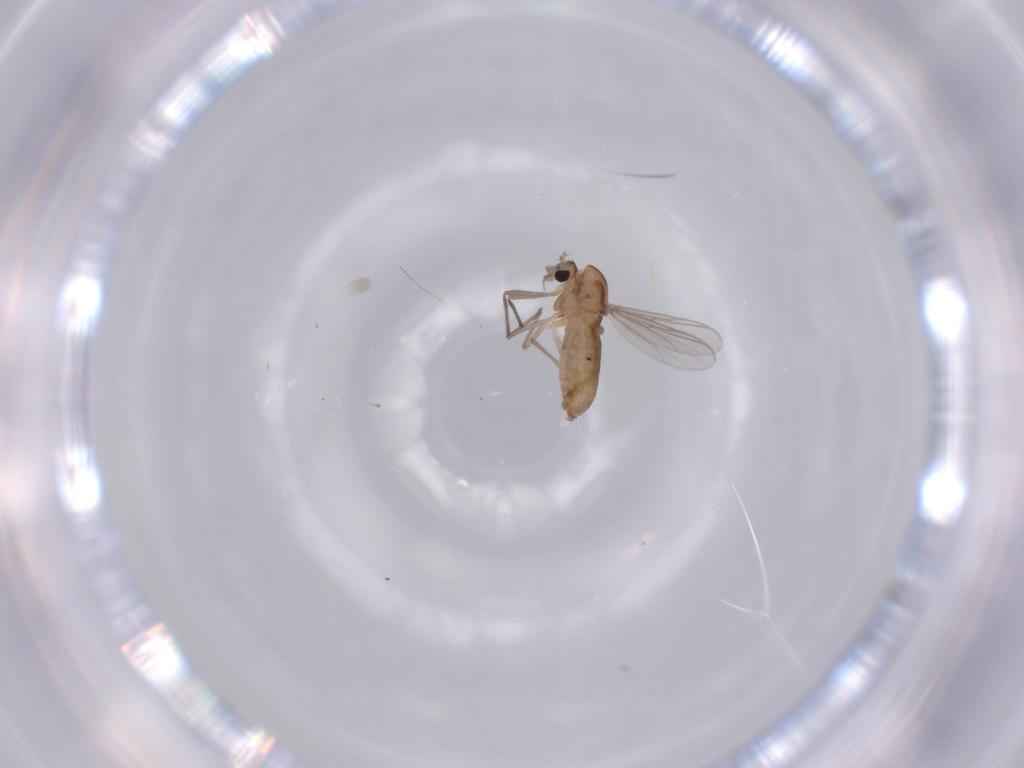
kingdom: Animalia
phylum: Arthropoda
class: Insecta
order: Diptera
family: Chironomidae
